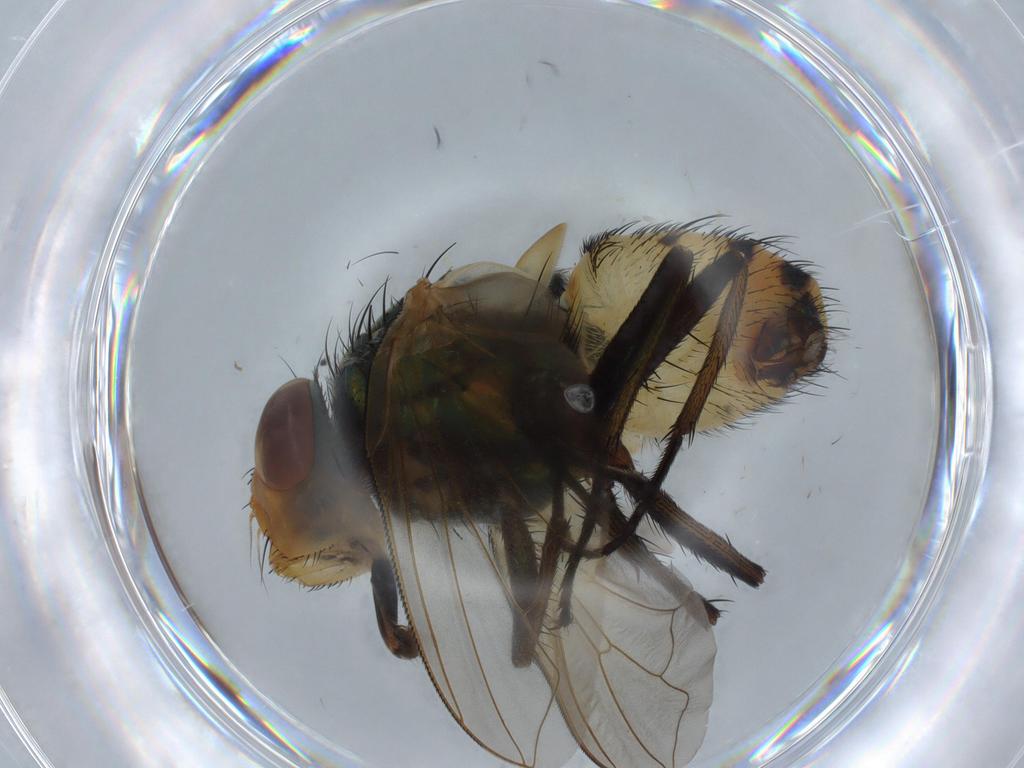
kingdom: Animalia
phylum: Arthropoda
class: Insecta
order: Diptera
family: Calliphoridae
